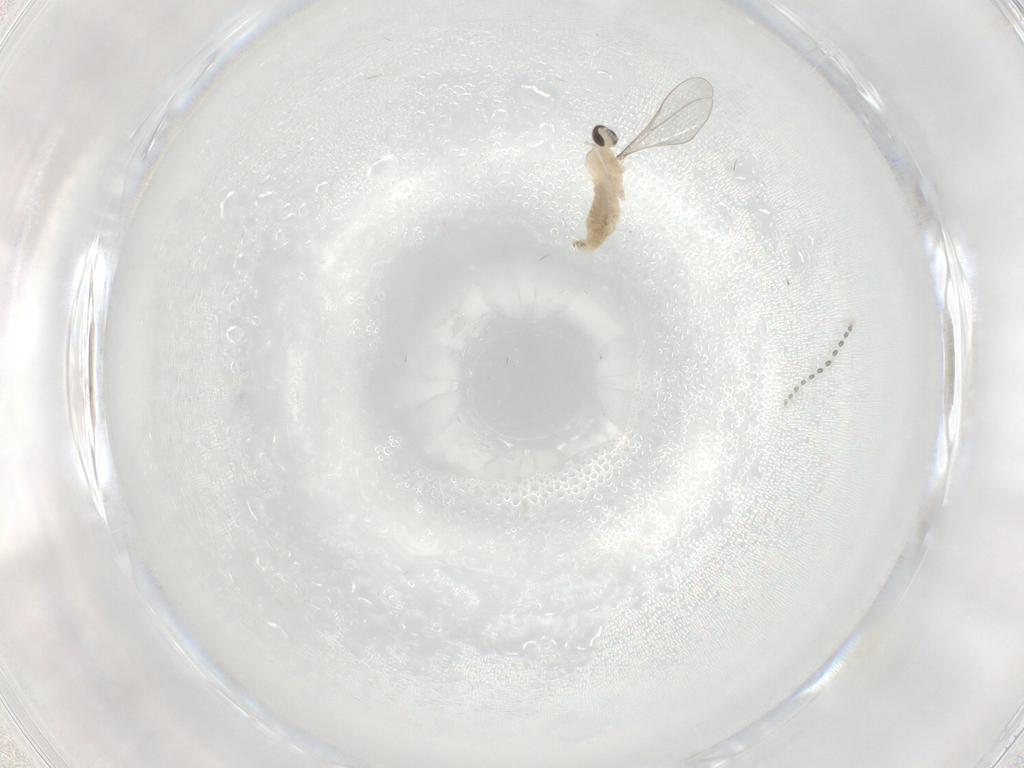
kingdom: Animalia
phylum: Arthropoda
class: Insecta
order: Diptera
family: Cecidomyiidae
